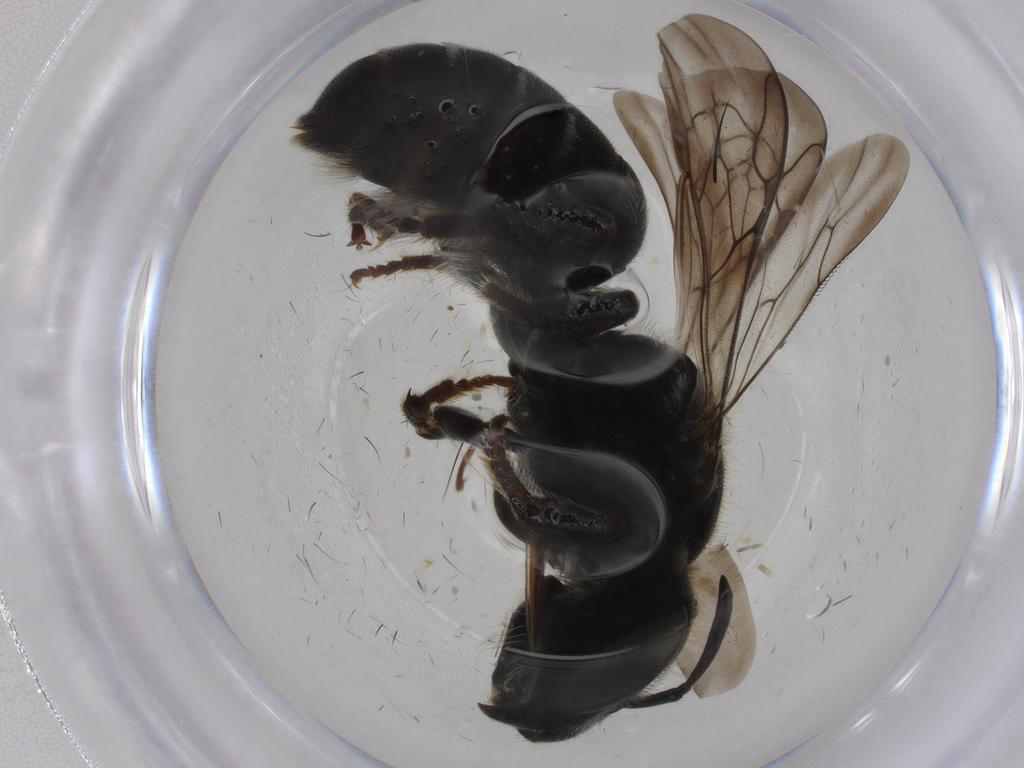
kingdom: Animalia
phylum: Arthropoda
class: Insecta
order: Hymenoptera
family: Megachilidae
